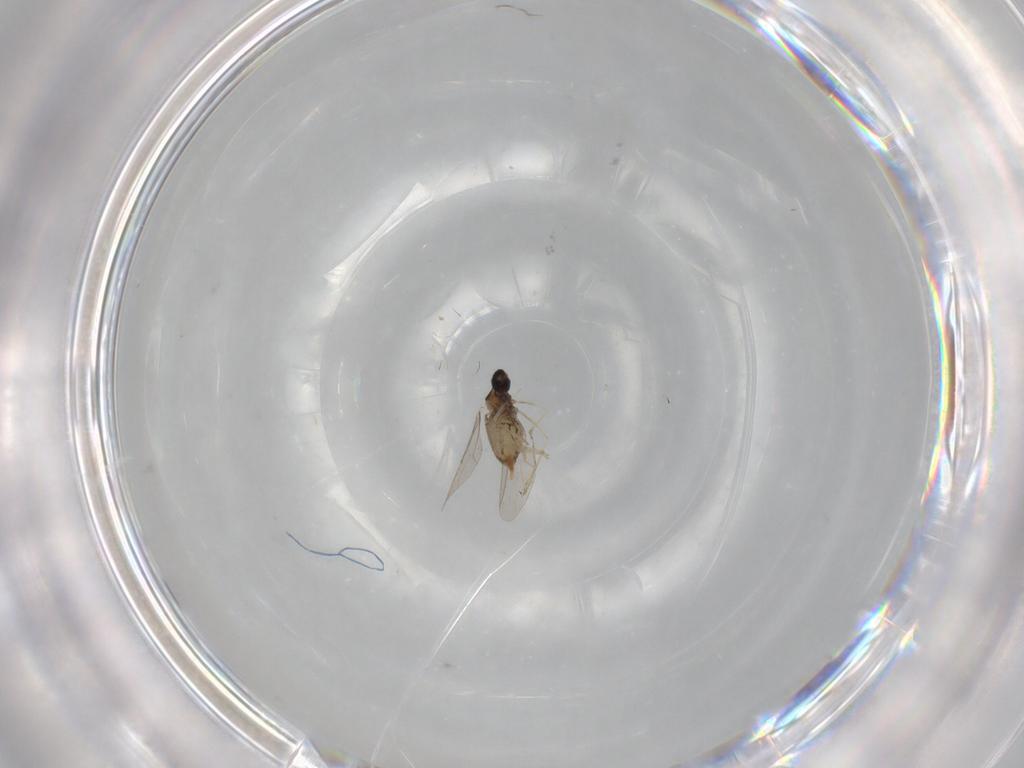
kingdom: Animalia
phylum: Arthropoda
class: Insecta
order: Diptera
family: Cecidomyiidae
